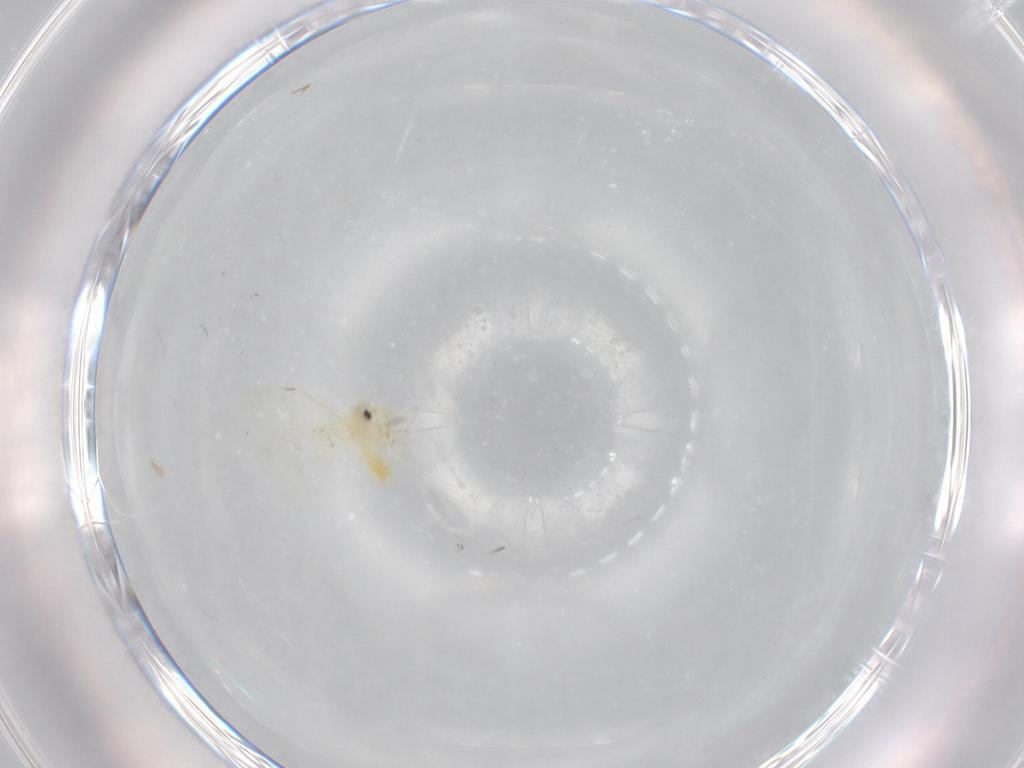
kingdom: Animalia
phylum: Arthropoda
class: Insecta
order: Hemiptera
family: Aleyrodidae
